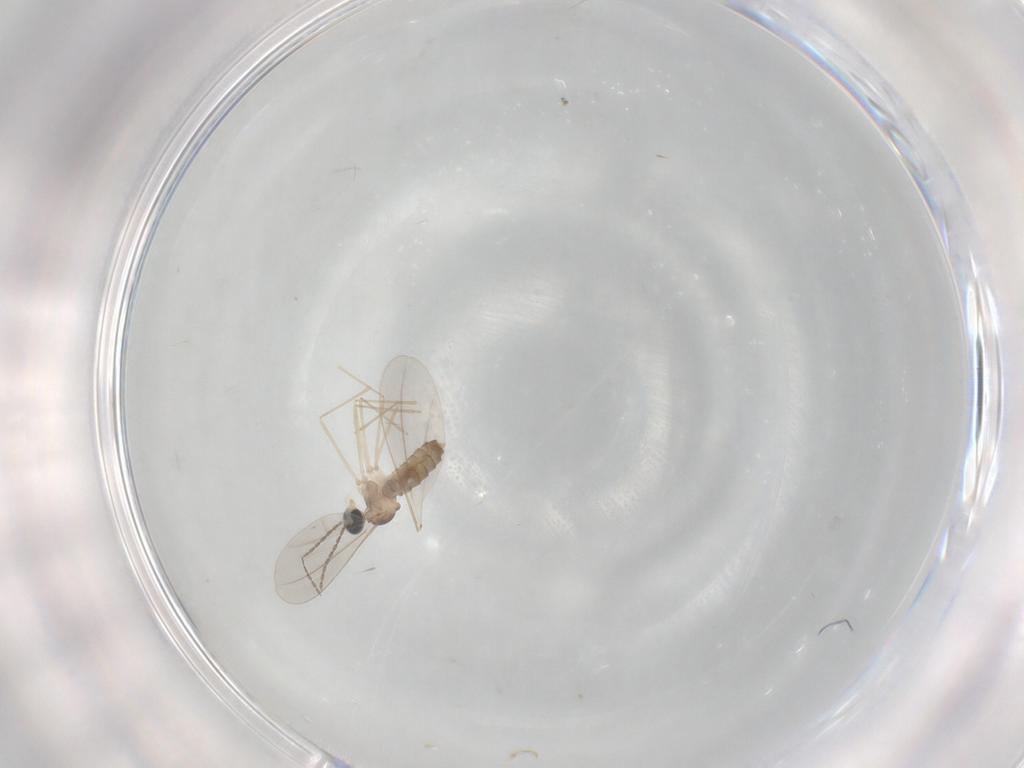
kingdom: Animalia
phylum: Arthropoda
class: Insecta
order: Diptera
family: Cecidomyiidae
